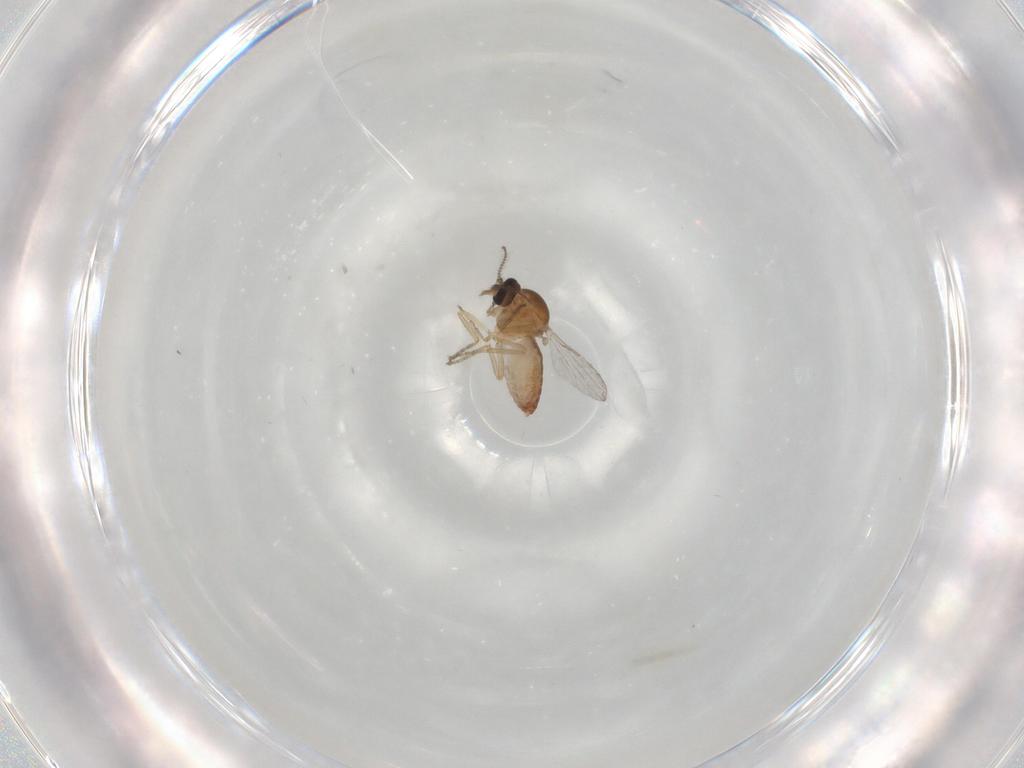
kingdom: Animalia
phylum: Arthropoda
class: Insecta
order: Diptera
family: Ceratopogonidae
